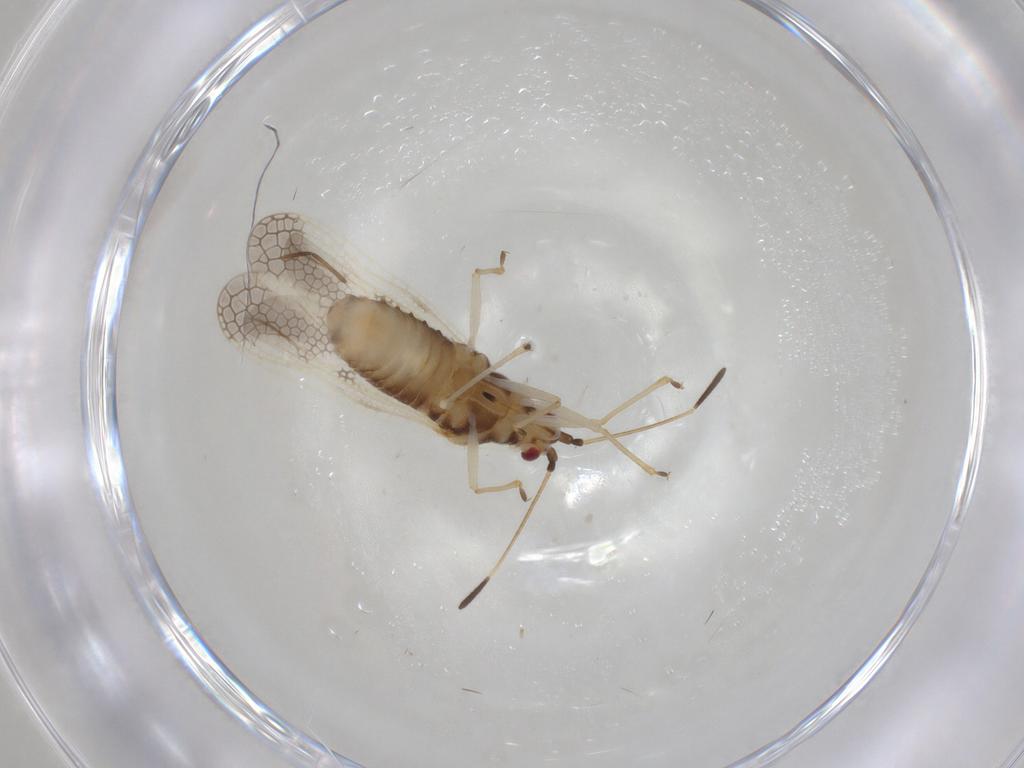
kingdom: Animalia
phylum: Arthropoda
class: Insecta
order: Hemiptera
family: Miridae
